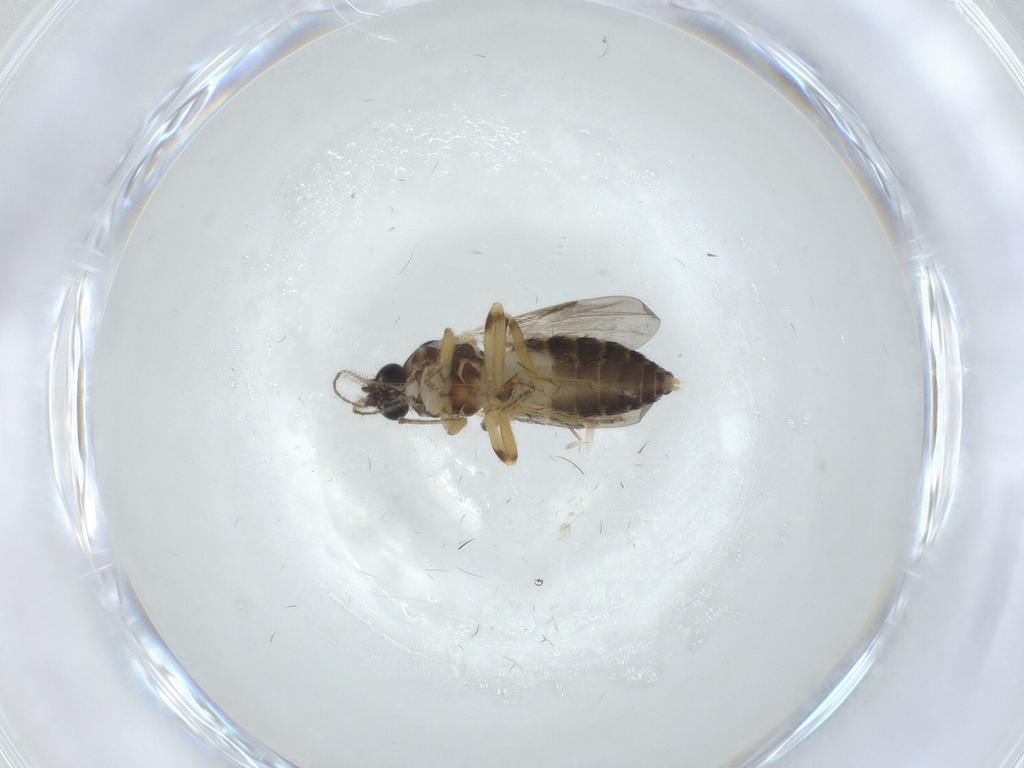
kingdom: Animalia
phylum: Arthropoda
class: Insecta
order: Diptera
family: Ceratopogonidae
